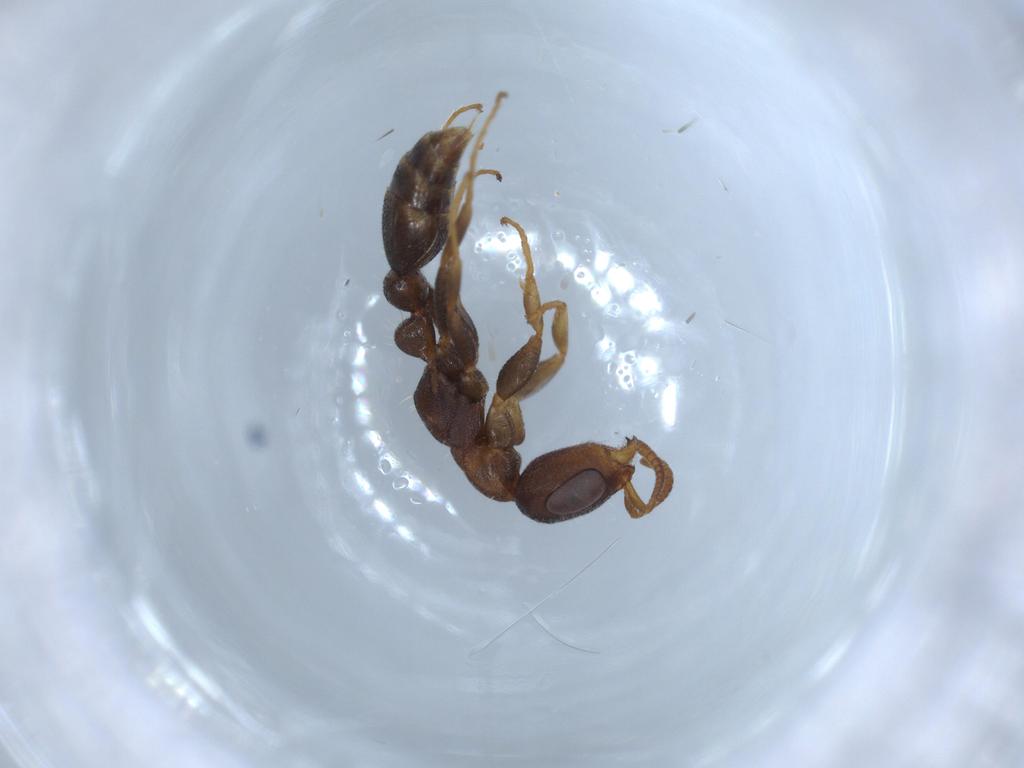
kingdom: Animalia
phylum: Arthropoda
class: Insecta
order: Hymenoptera
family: Formicidae
